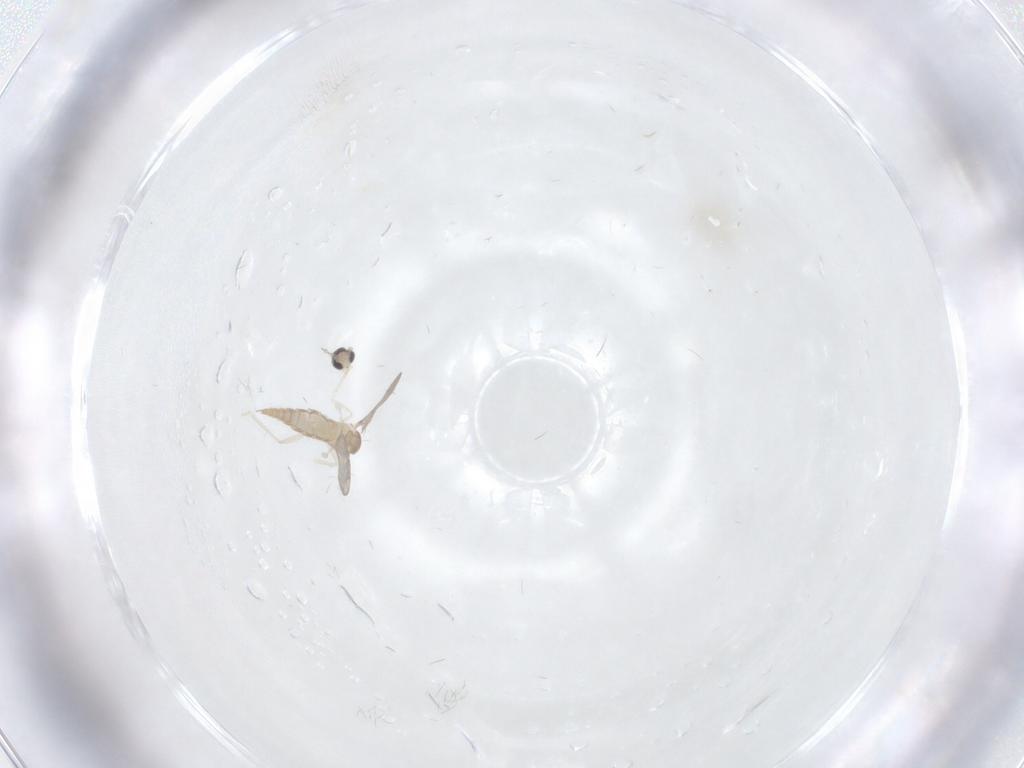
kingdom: Animalia
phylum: Arthropoda
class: Insecta
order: Diptera
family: Cecidomyiidae
